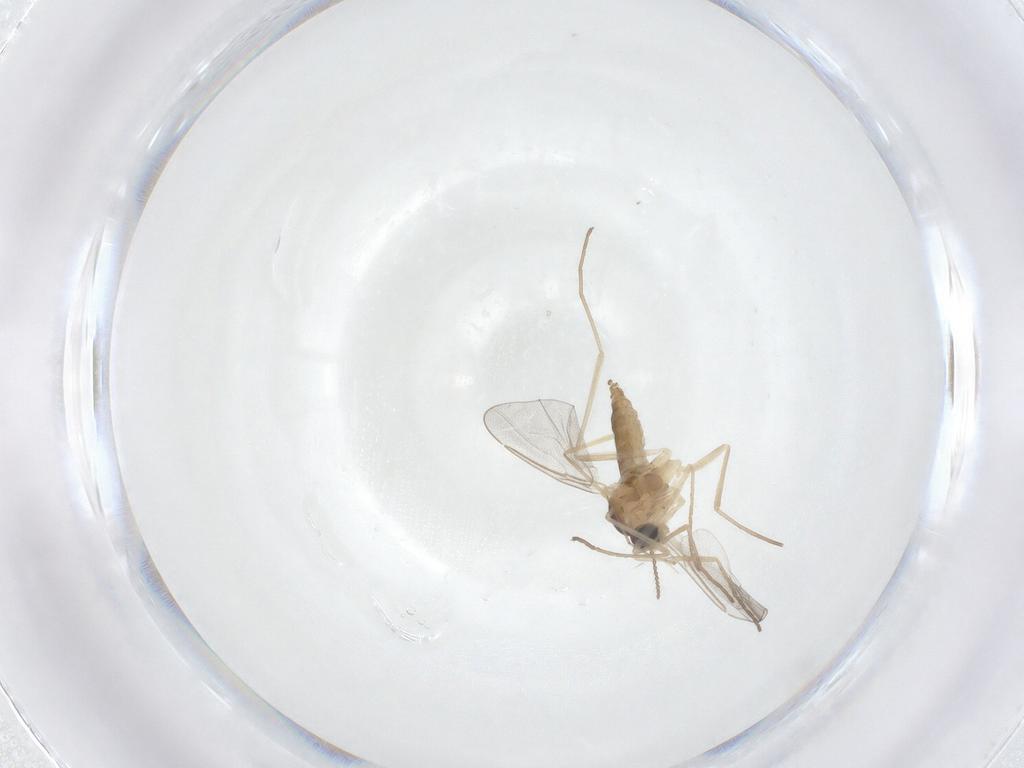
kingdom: Animalia
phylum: Arthropoda
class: Insecta
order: Diptera
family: Cecidomyiidae
